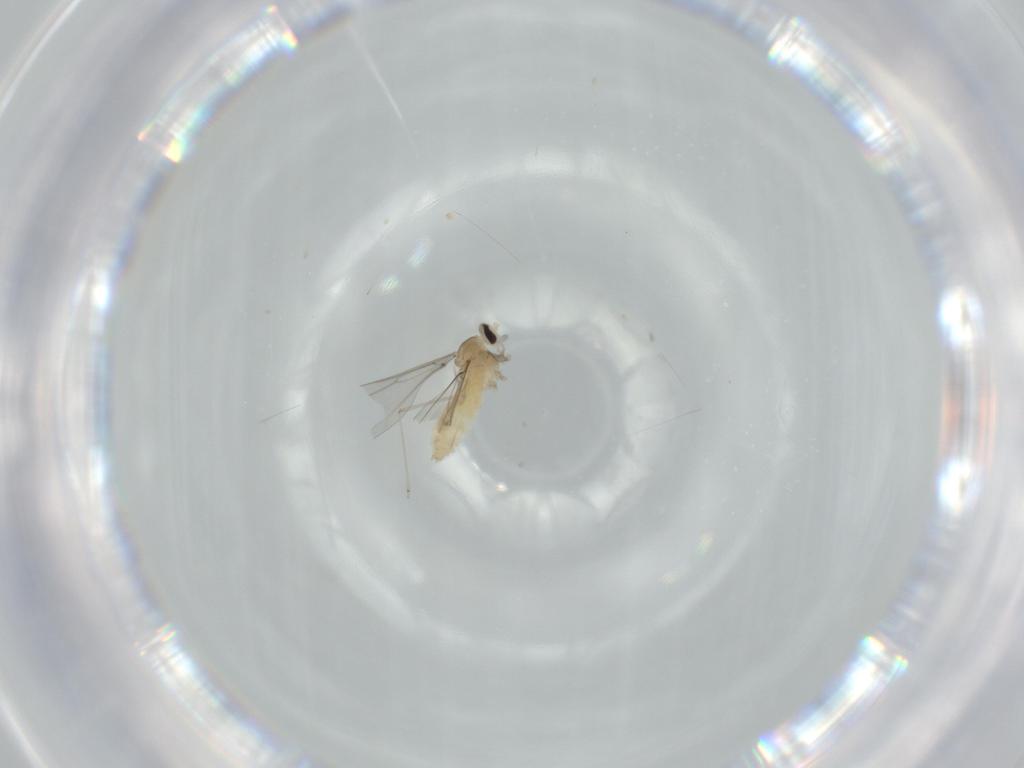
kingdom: Animalia
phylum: Arthropoda
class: Insecta
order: Diptera
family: Cecidomyiidae
